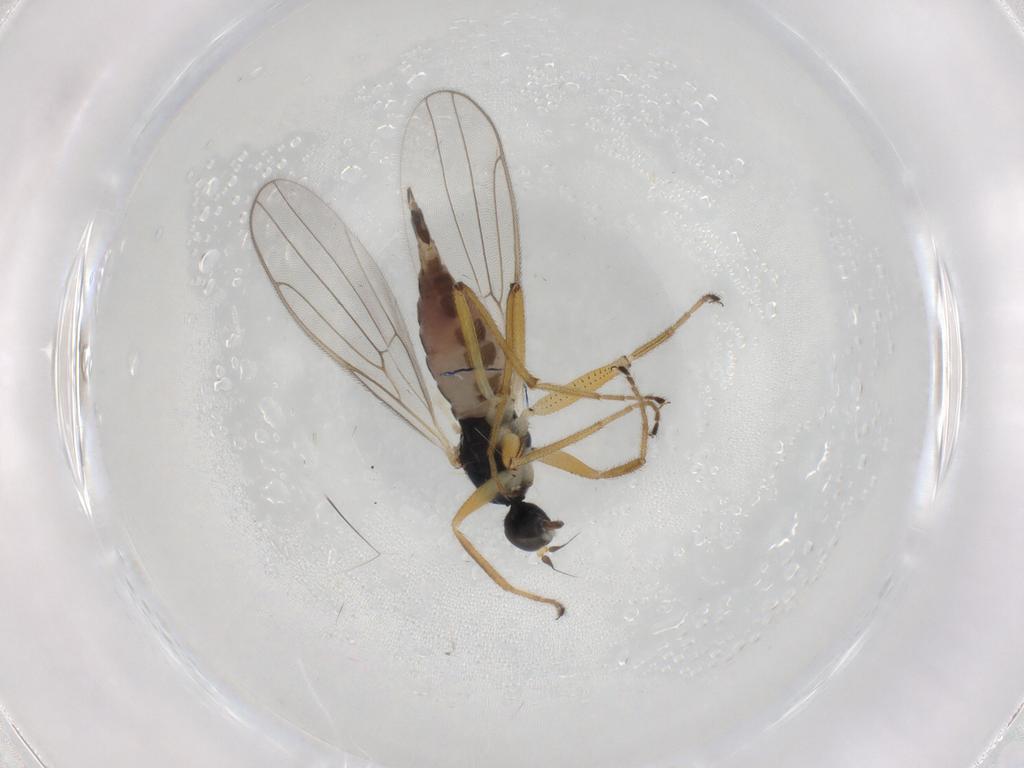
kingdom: Animalia
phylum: Arthropoda
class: Insecta
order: Diptera
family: Hybotidae
